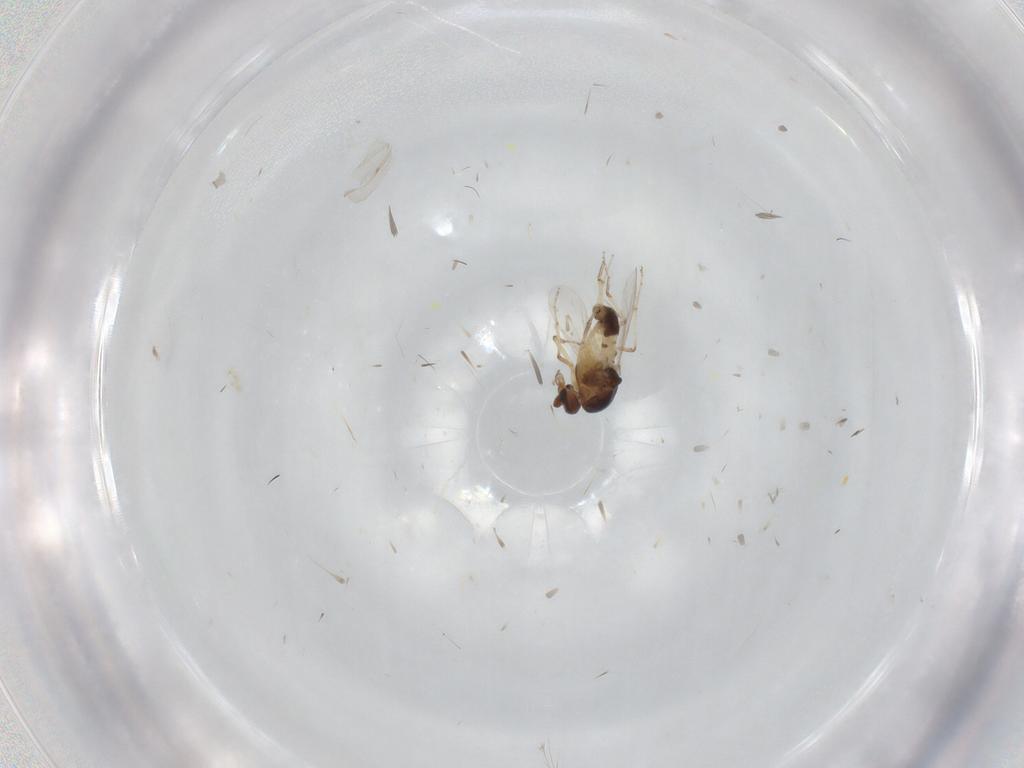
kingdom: Animalia
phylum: Arthropoda
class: Insecta
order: Diptera
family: Ceratopogonidae
